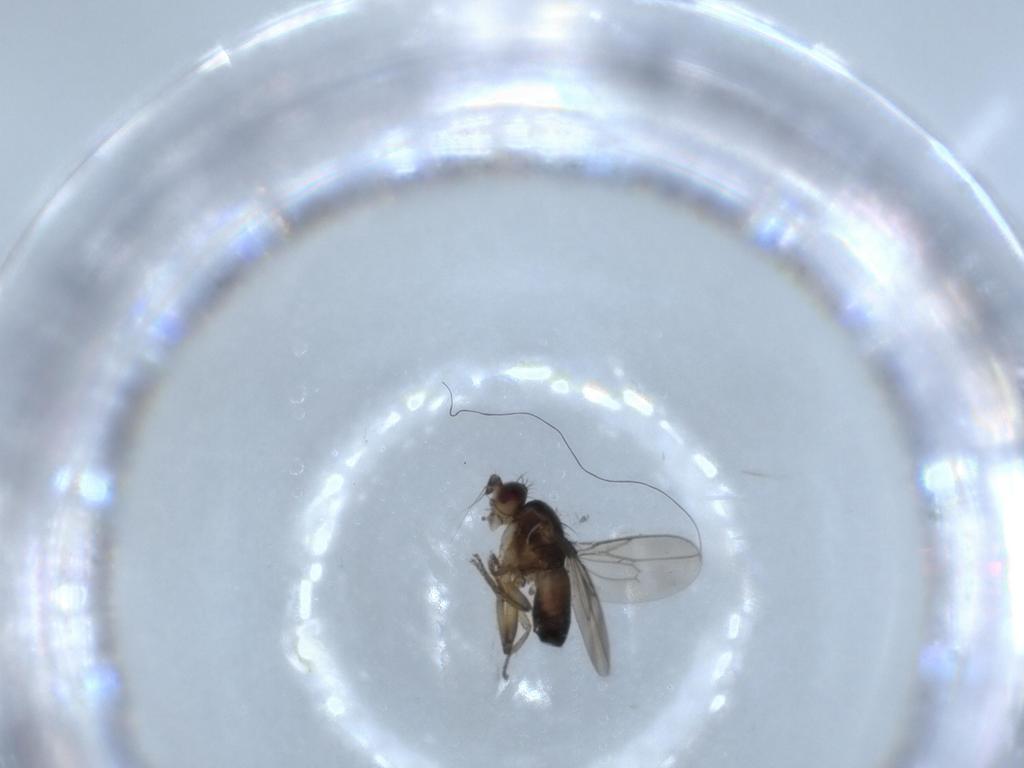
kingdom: Animalia
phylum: Arthropoda
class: Insecta
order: Diptera
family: Sphaeroceridae
